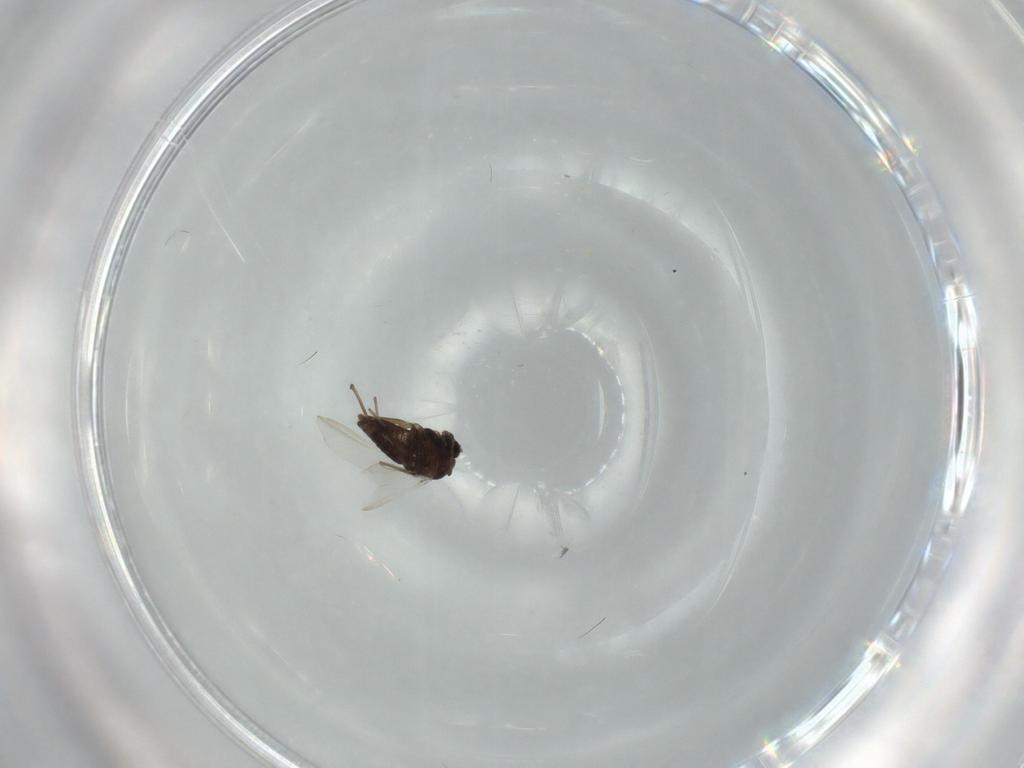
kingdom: Animalia
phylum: Arthropoda
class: Insecta
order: Diptera
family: Chironomidae
